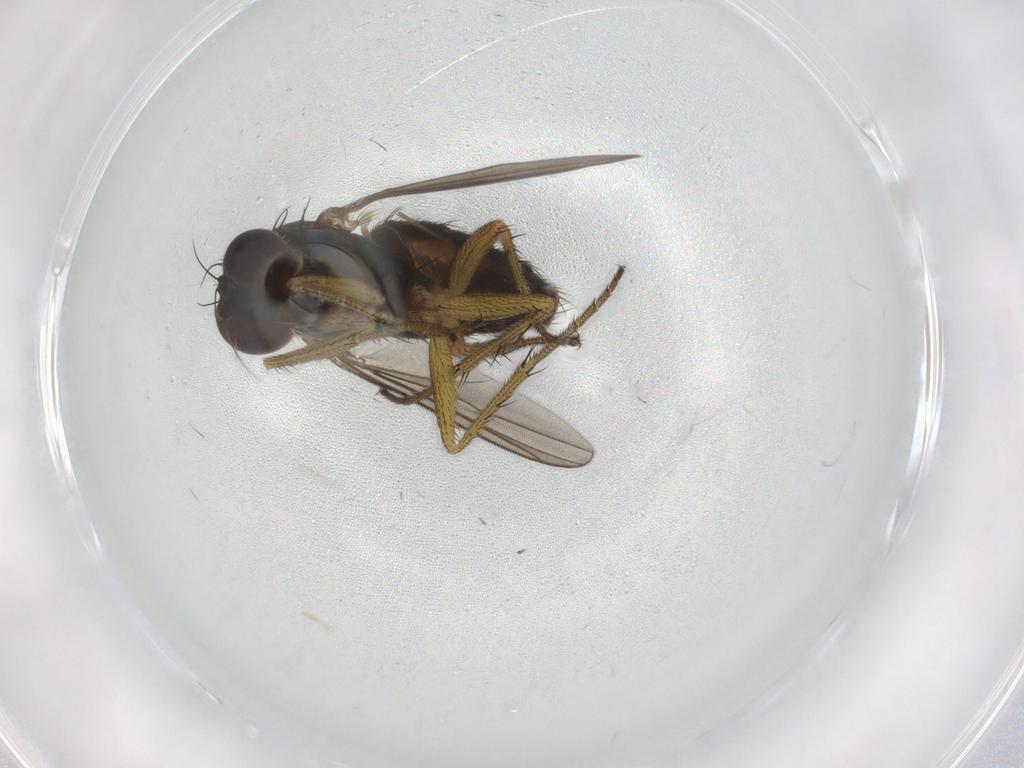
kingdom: Animalia
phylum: Arthropoda
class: Insecta
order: Diptera
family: Dolichopodidae
